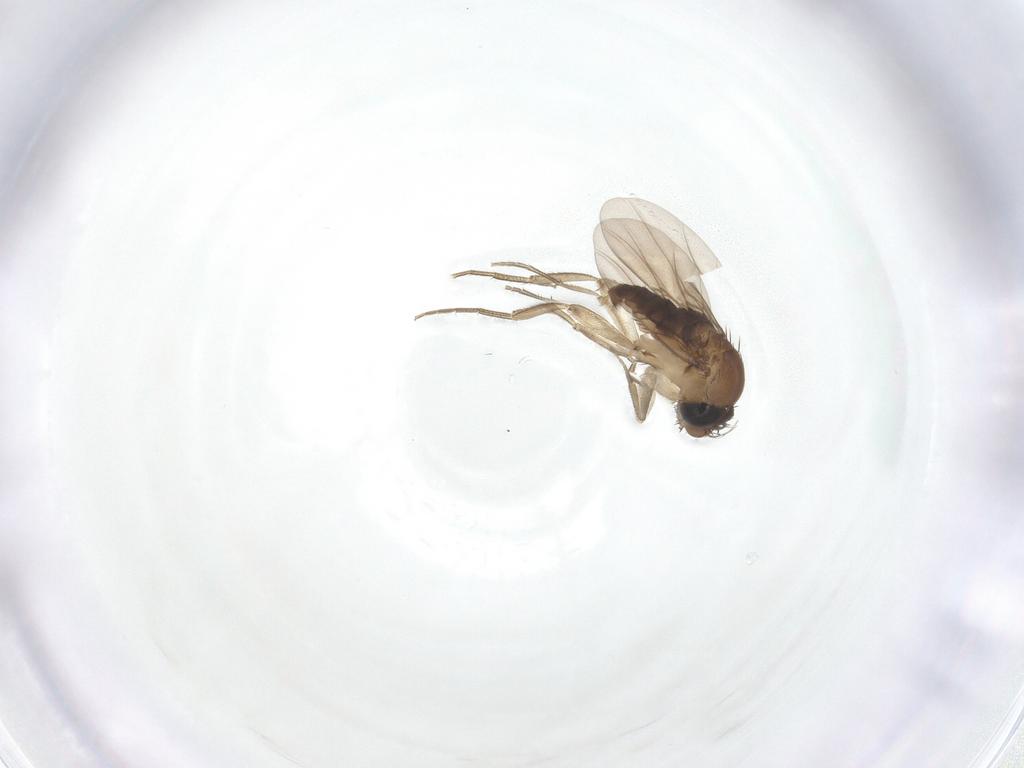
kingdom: Animalia
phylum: Arthropoda
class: Insecta
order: Diptera
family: Phoridae
